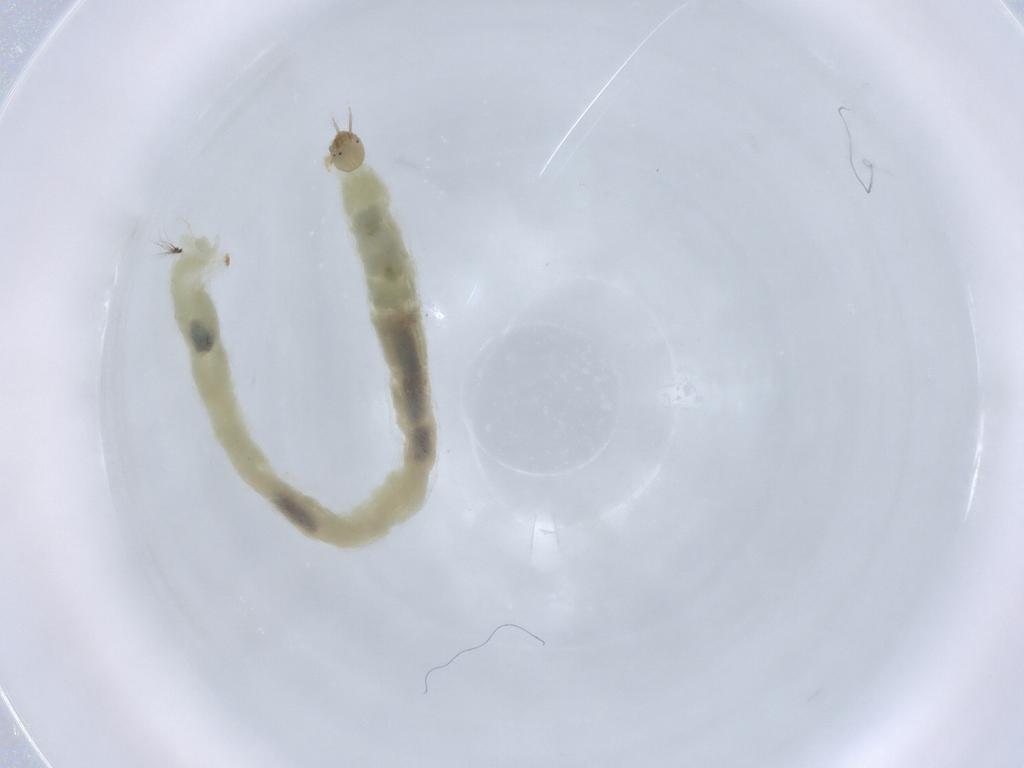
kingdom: Animalia
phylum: Arthropoda
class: Insecta
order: Diptera
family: Chironomidae
